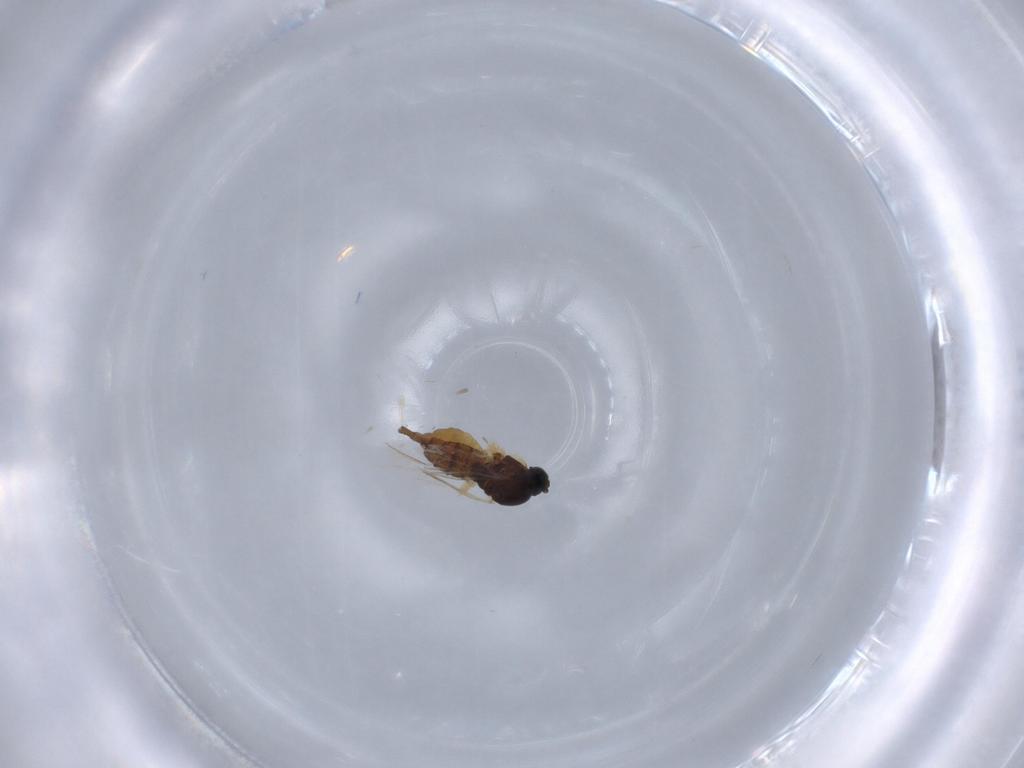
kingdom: Animalia
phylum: Arthropoda
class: Insecta
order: Diptera
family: Sciaridae
